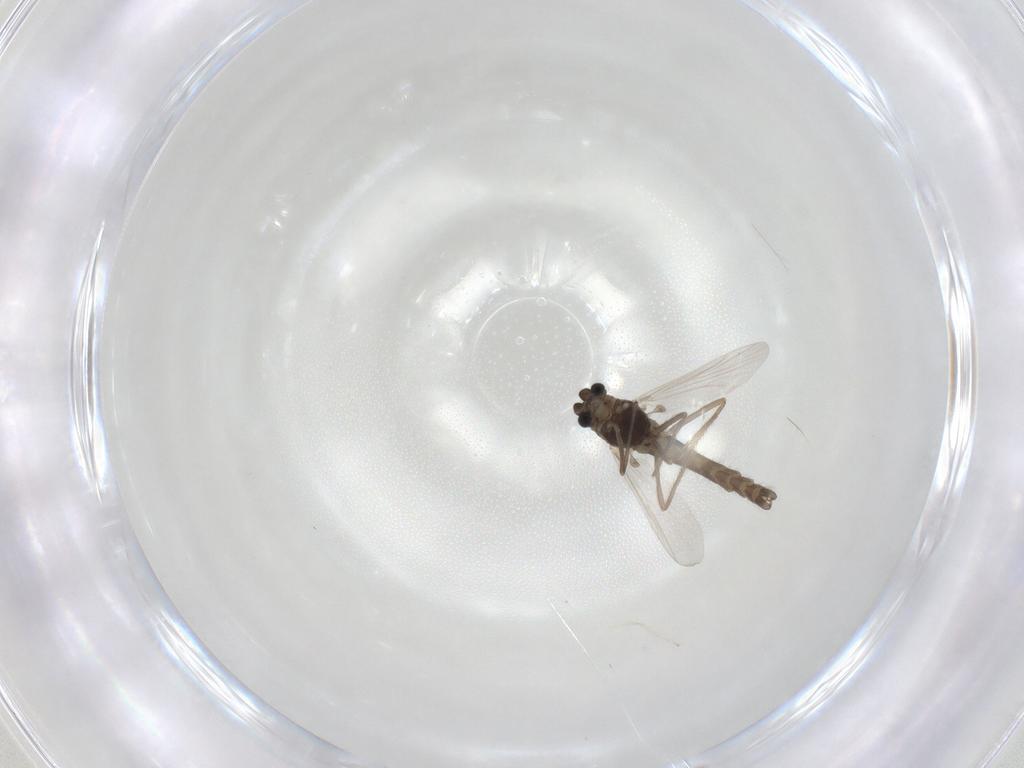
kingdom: Animalia
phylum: Arthropoda
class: Insecta
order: Diptera
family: Chironomidae
